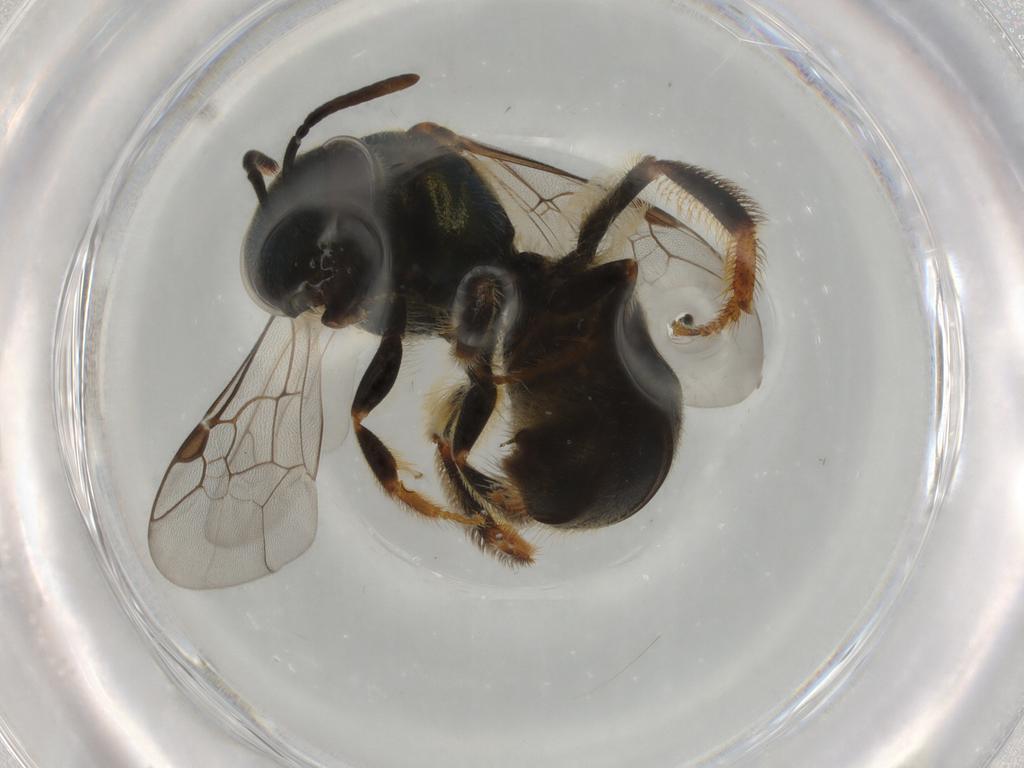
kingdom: Animalia
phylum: Arthropoda
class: Insecta
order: Hymenoptera
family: Halictidae
